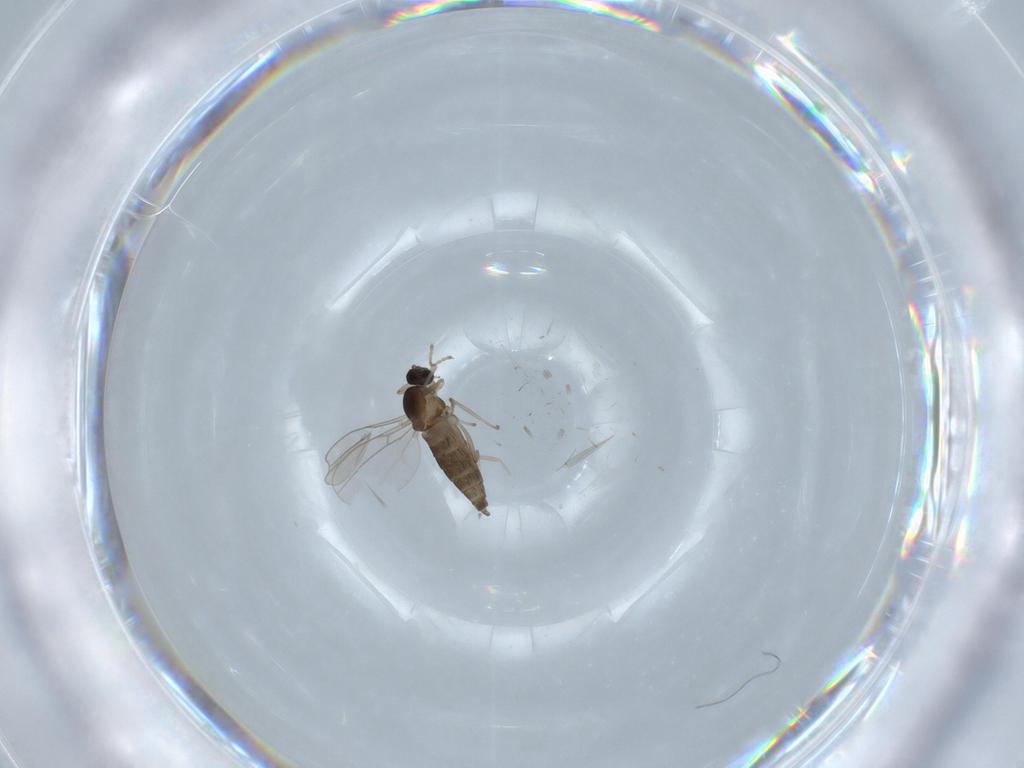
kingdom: Animalia
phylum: Arthropoda
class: Insecta
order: Diptera
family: Cecidomyiidae
